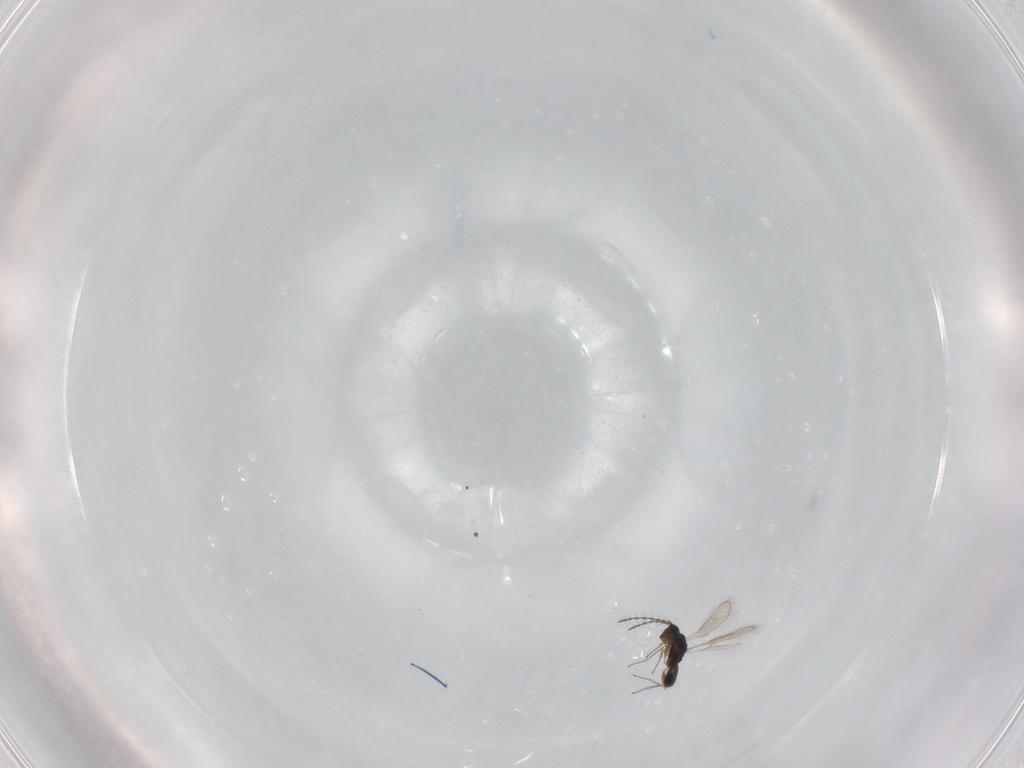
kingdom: Animalia
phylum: Arthropoda
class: Insecta
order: Hymenoptera
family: Pteromalidae
